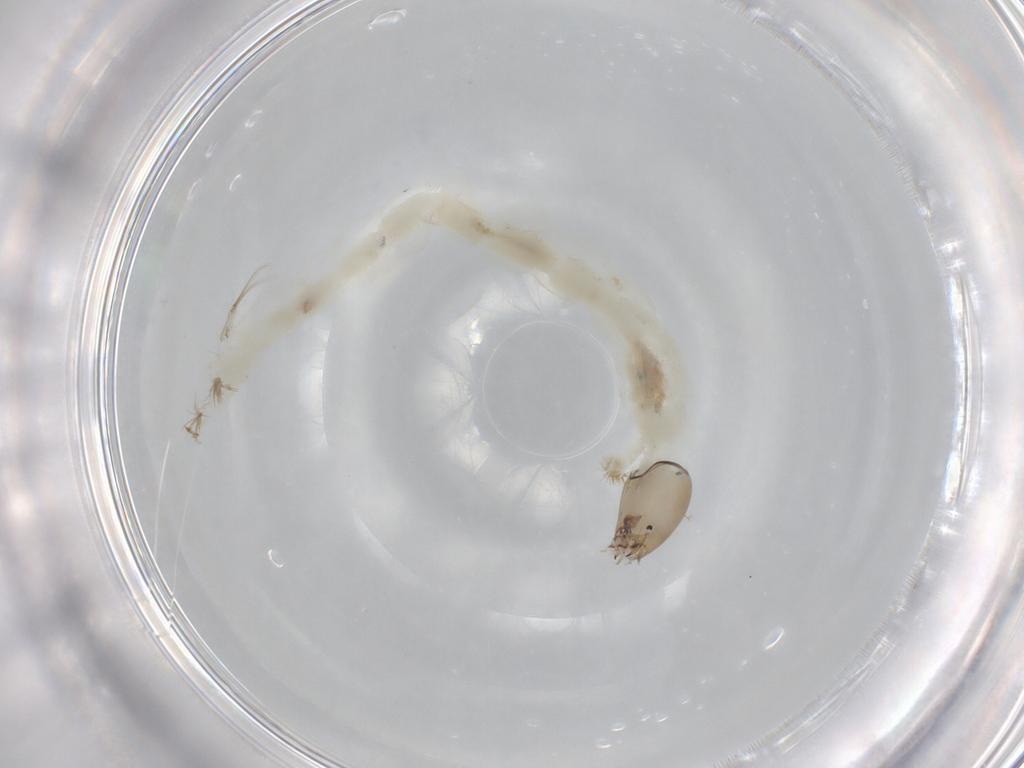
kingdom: Animalia
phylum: Arthropoda
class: Insecta
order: Diptera
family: Chironomidae
